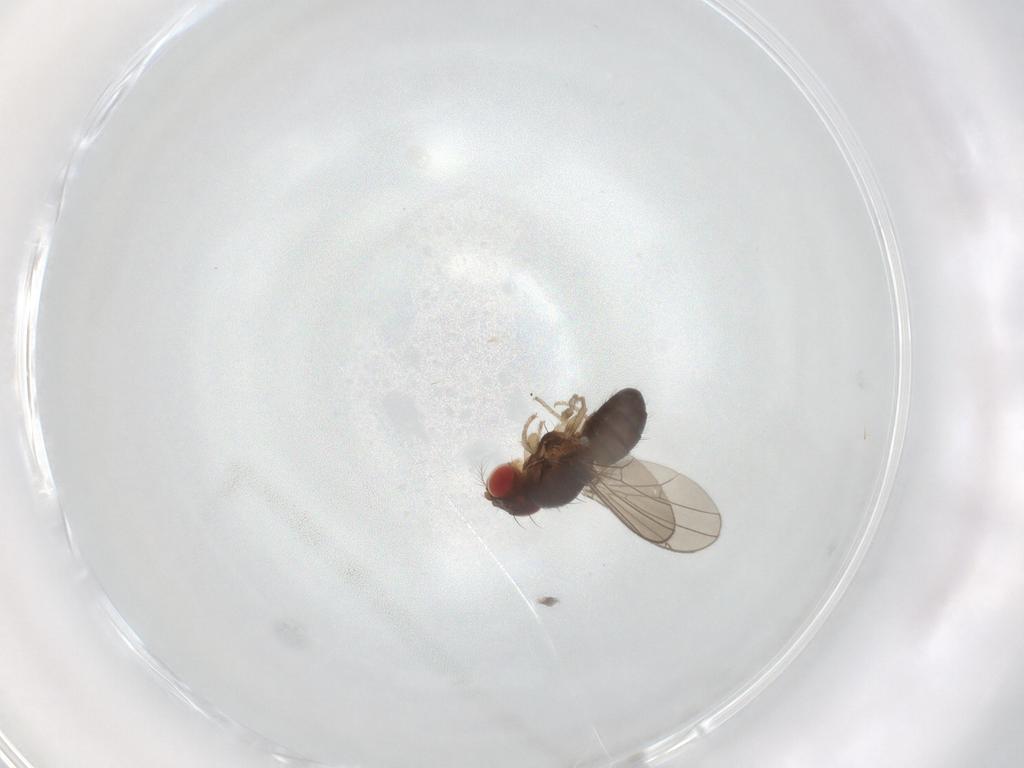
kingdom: Animalia
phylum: Arthropoda
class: Insecta
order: Diptera
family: Drosophilidae
